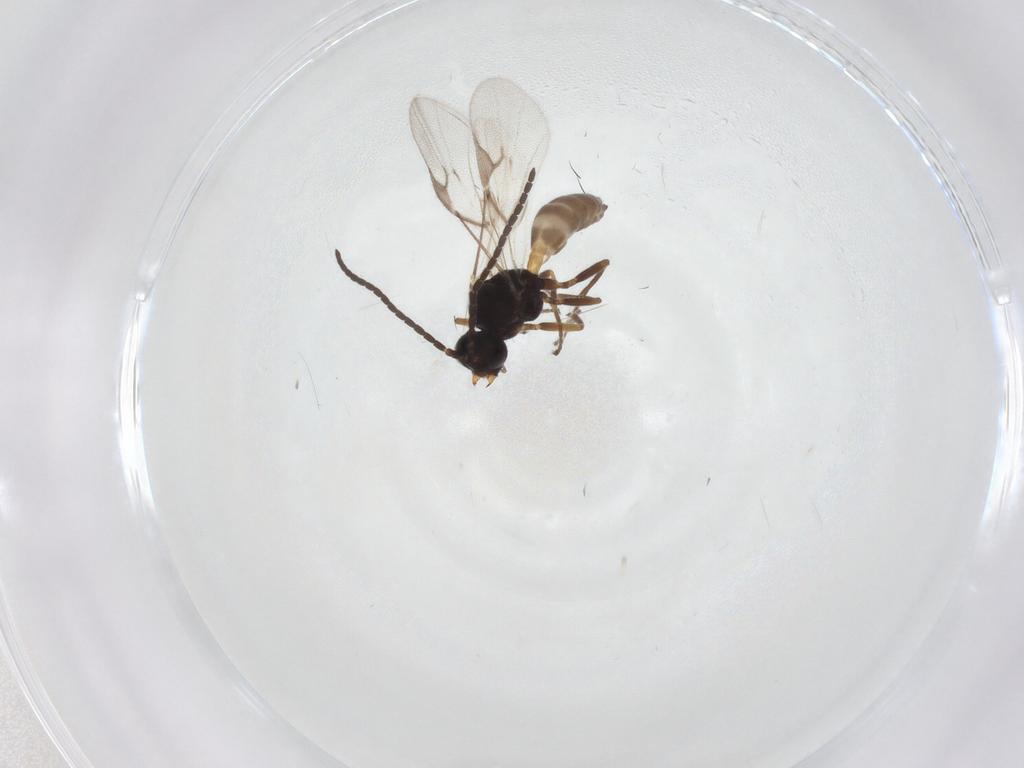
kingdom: Animalia
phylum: Arthropoda
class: Insecta
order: Hymenoptera
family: Braconidae
